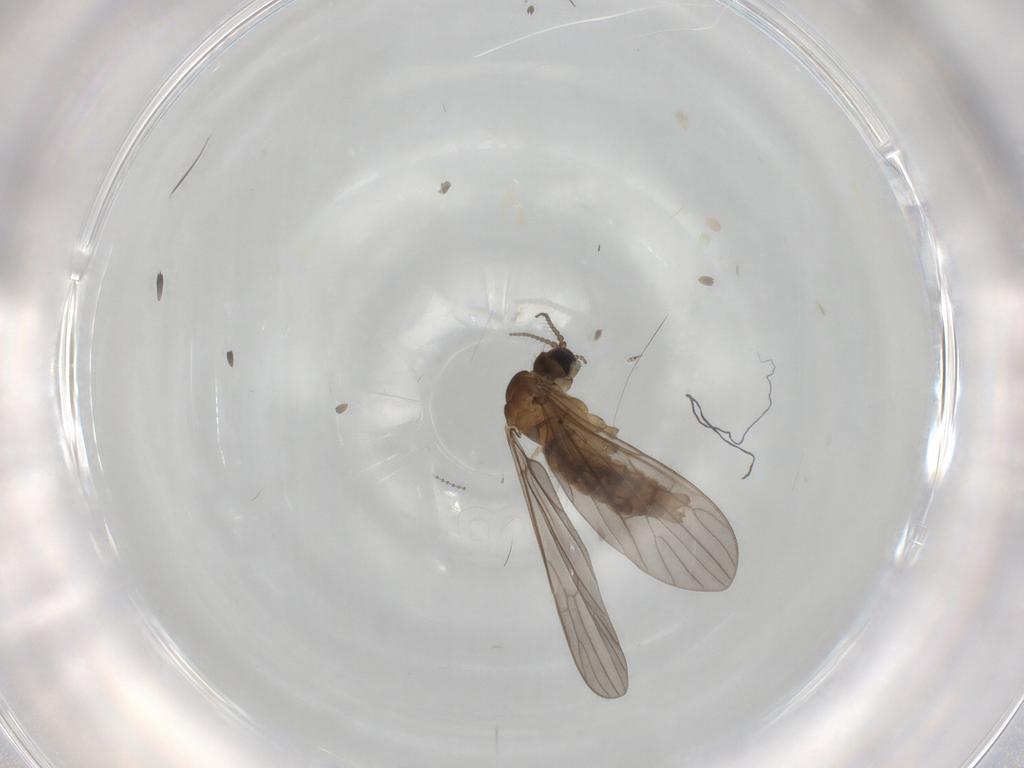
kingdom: Animalia
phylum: Arthropoda
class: Insecta
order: Diptera
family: Limoniidae
